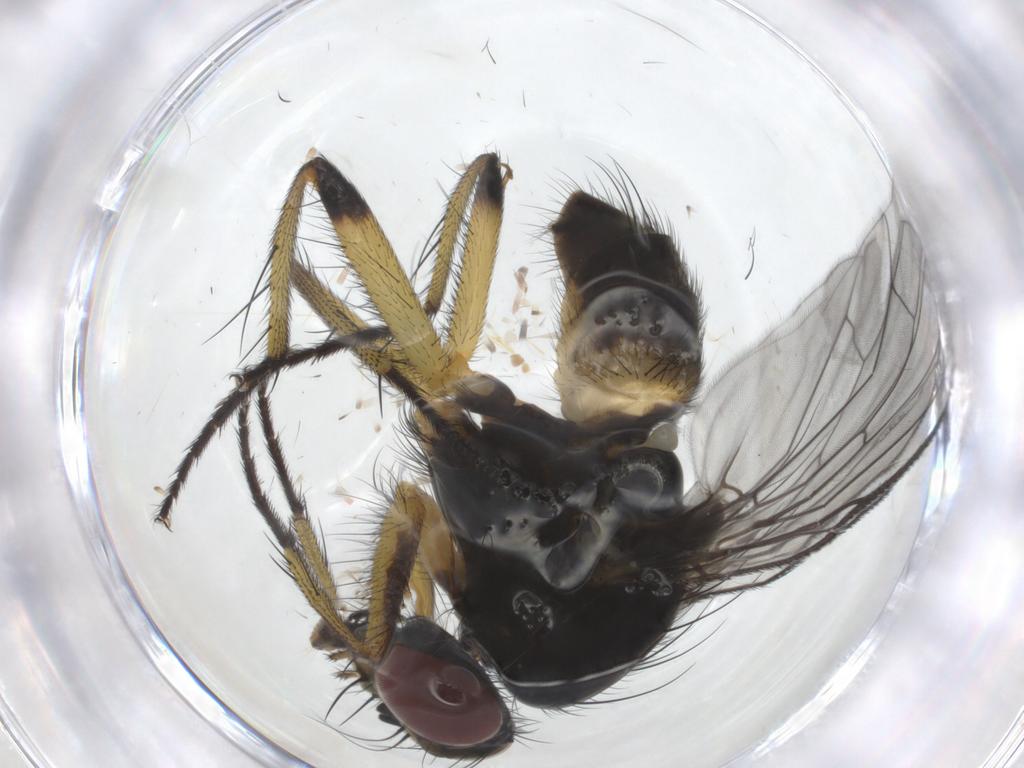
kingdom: Animalia
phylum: Arthropoda
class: Insecta
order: Diptera
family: Muscidae
